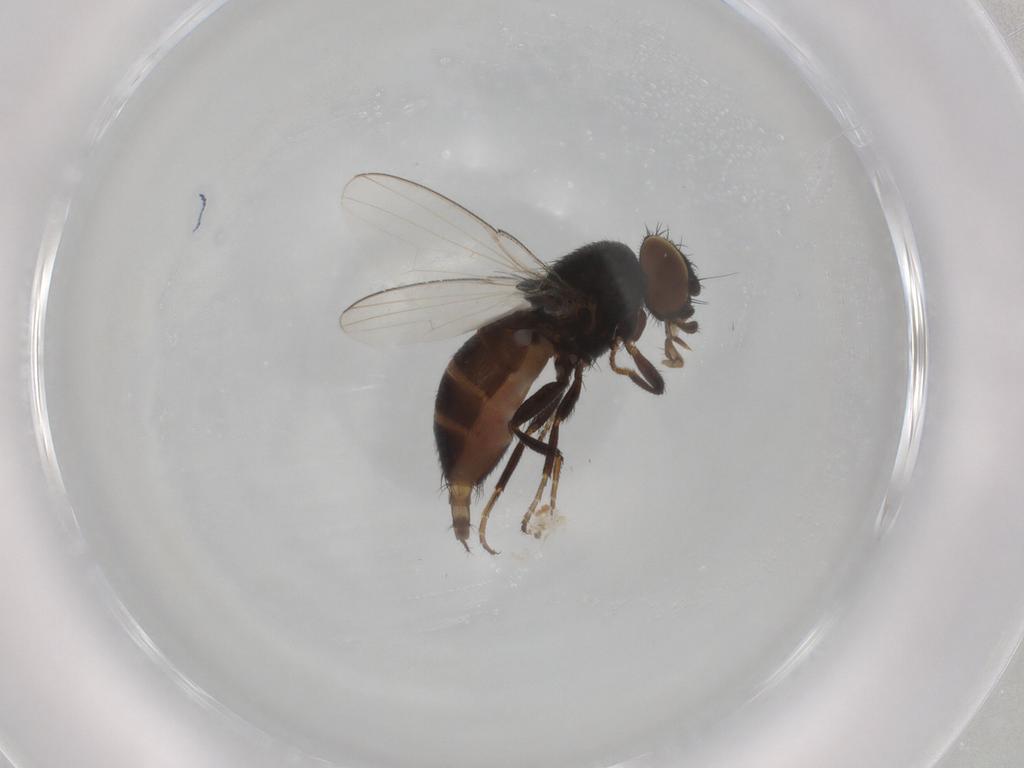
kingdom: Animalia
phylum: Arthropoda
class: Insecta
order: Diptera
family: Milichiidae
